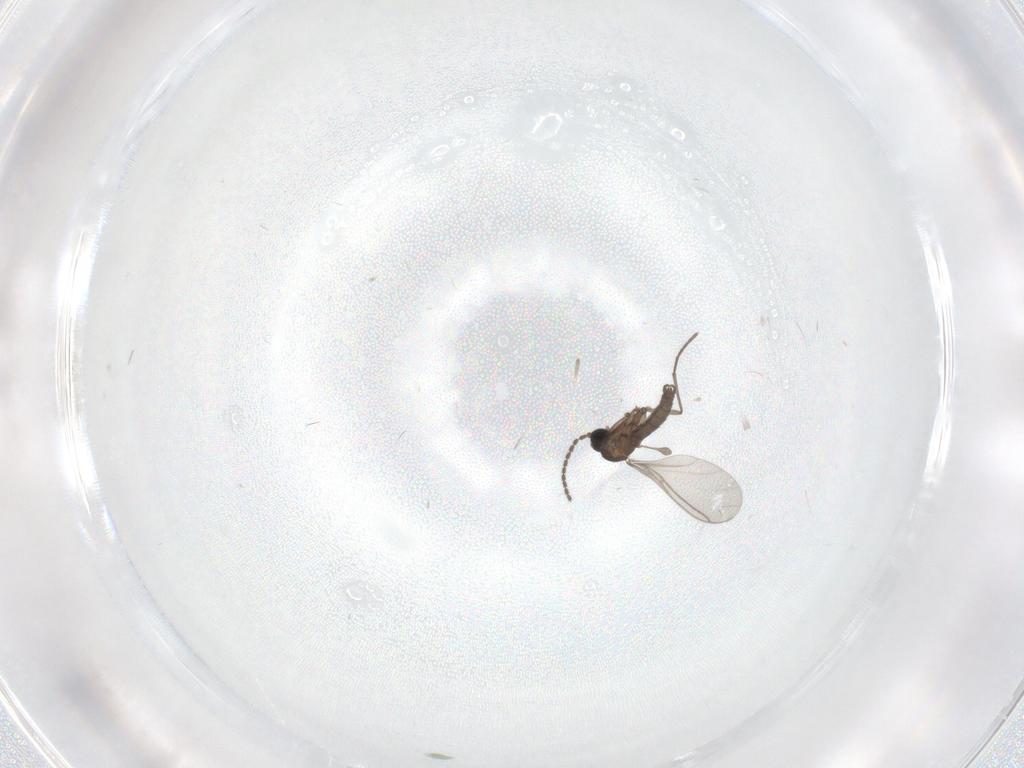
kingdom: Animalia
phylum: Arthropoda
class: Insecta
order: Diptera
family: Sciaridae
